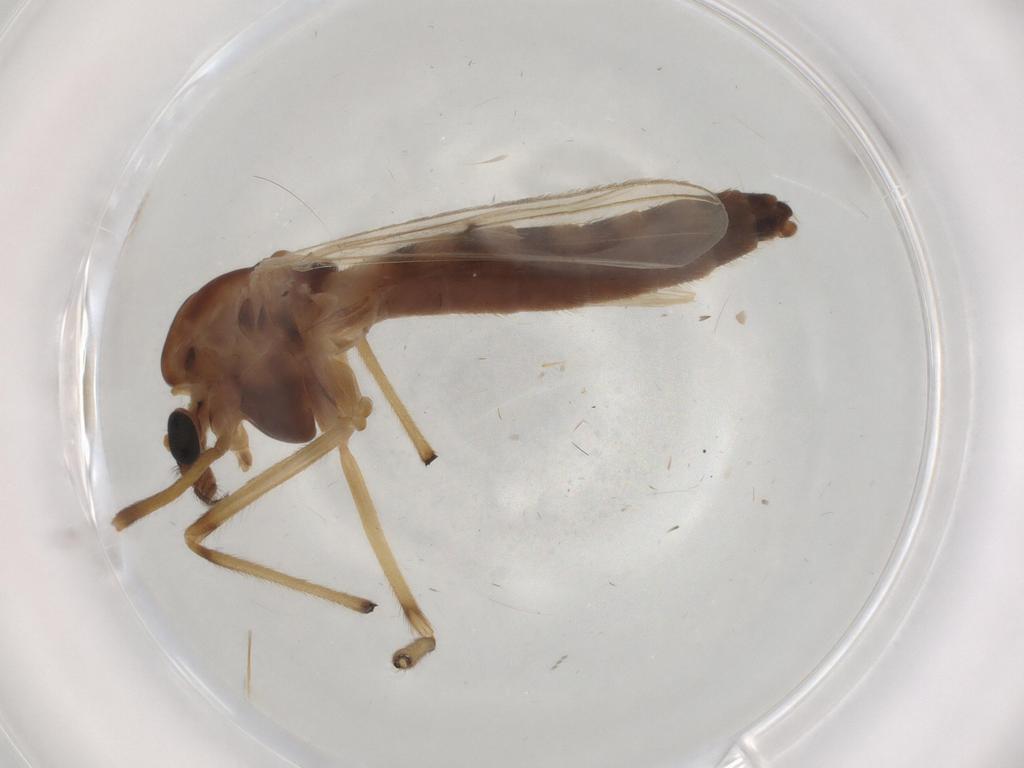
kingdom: Animalia
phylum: Arthropoda
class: Insecta
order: Diptera
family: Chironomidae
